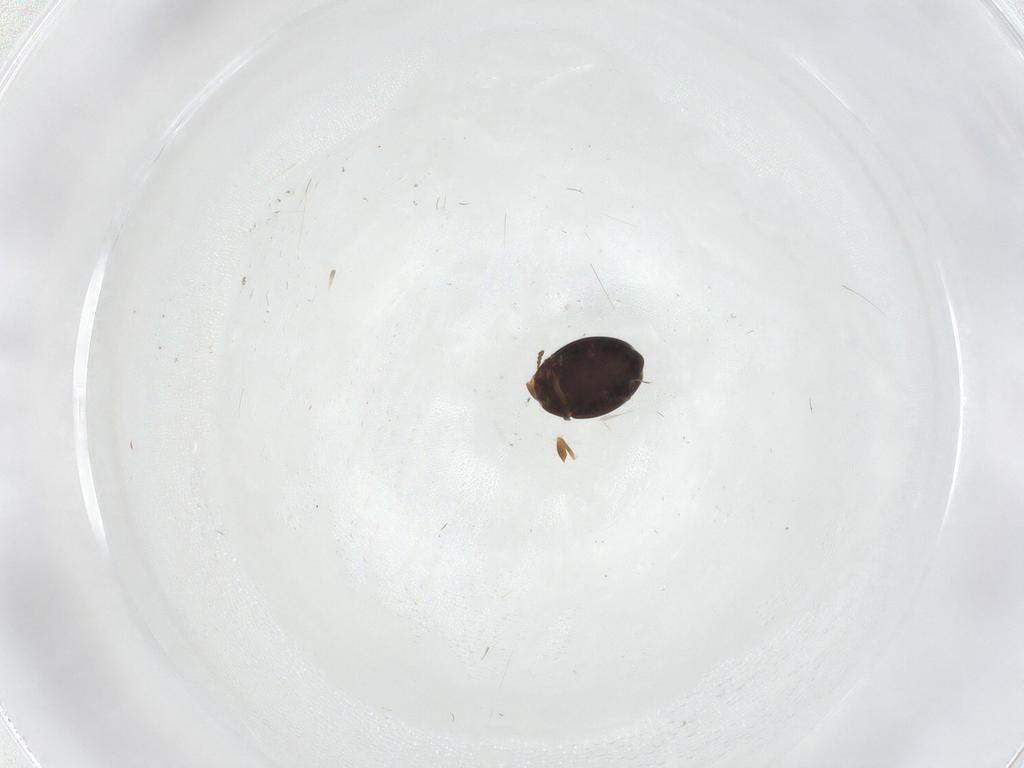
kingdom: Animalia
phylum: Arthropoda
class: Insecta
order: Coleoptera
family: Corylophidae
